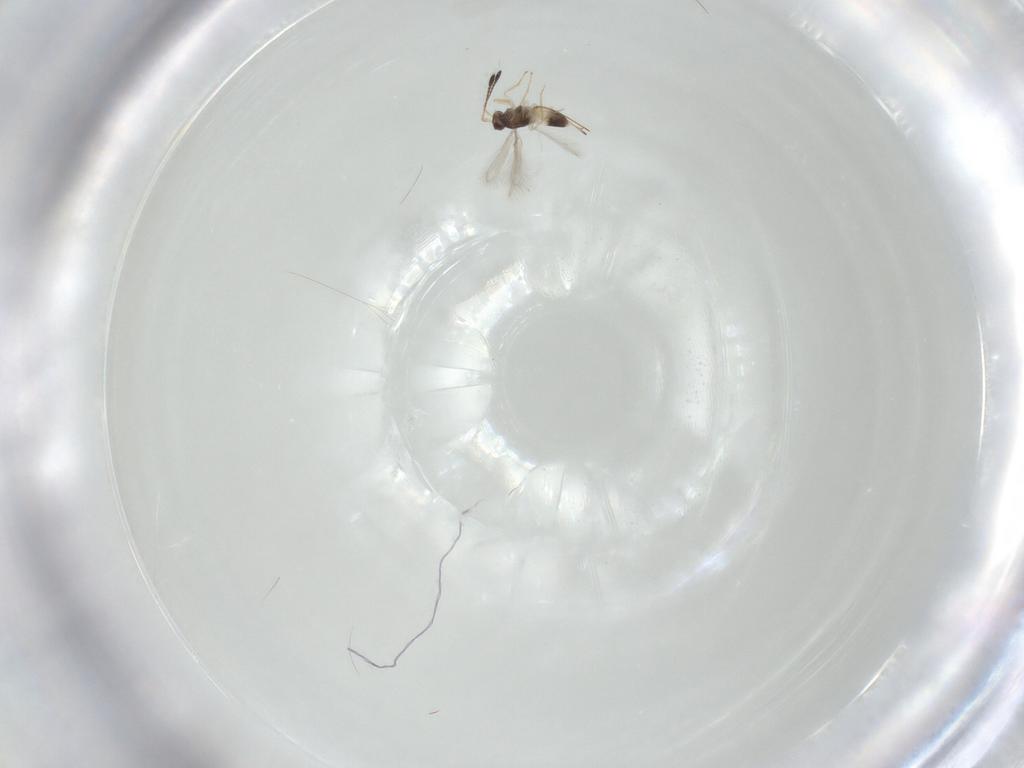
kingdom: Animalia
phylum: Arthropoda
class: Insecta
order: Hymenoptera
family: Mymaridae
